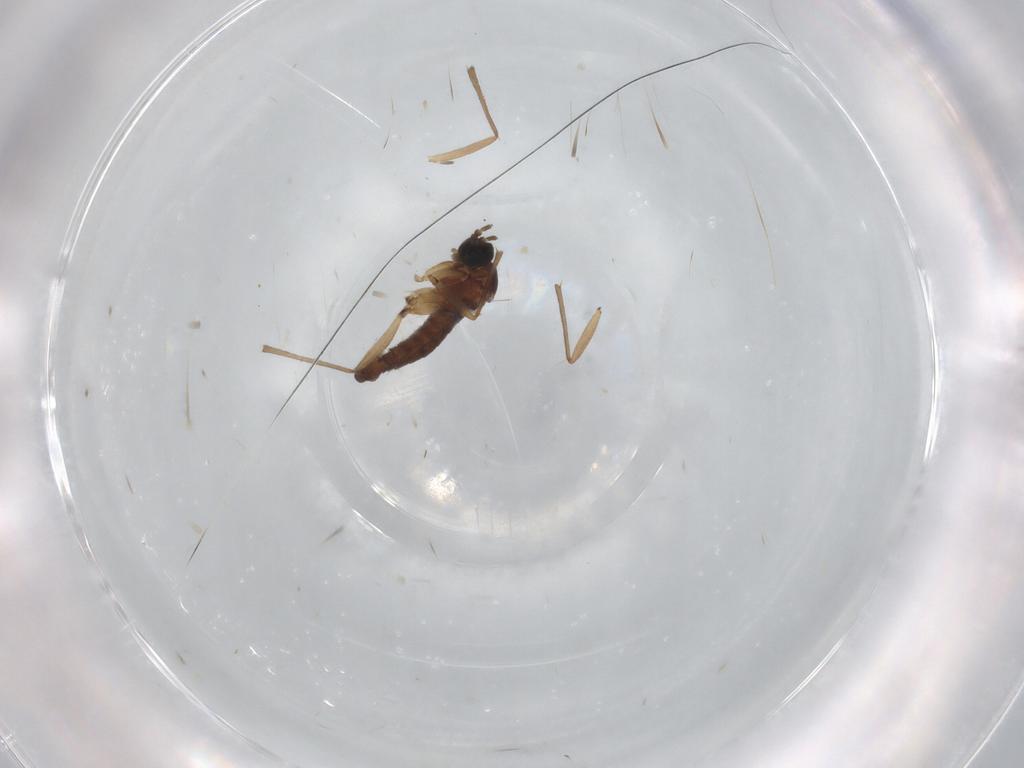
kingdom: Animalia
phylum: Arthropoda
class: Insecta
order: Diptera
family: Sciaridae
